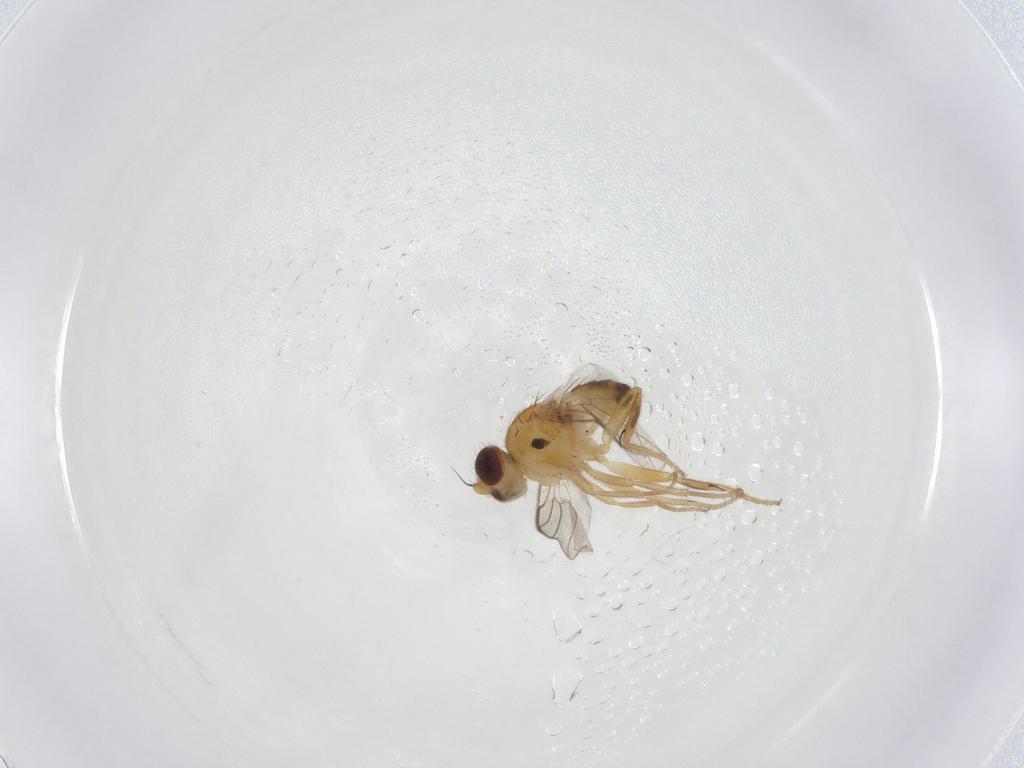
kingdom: Animalia
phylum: Arthropoda
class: Insecta
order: Diptera
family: Chloropidae
